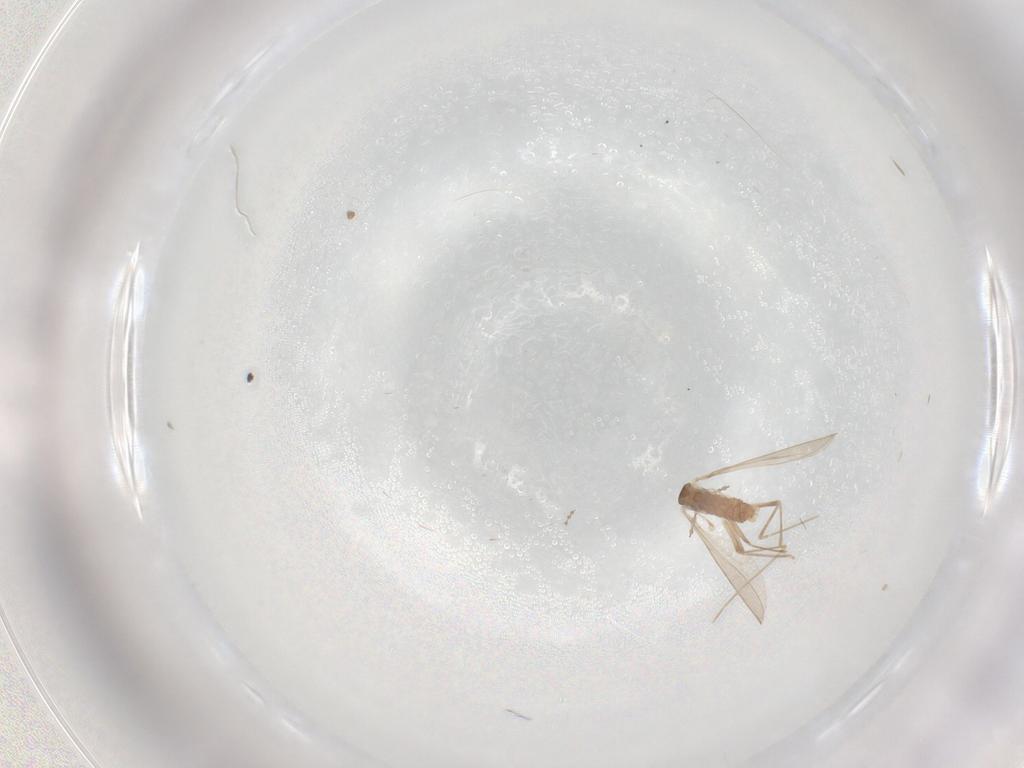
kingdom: Animalia
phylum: Arthropoda
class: Insecta
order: Diptera
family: Cecidomyiidae
